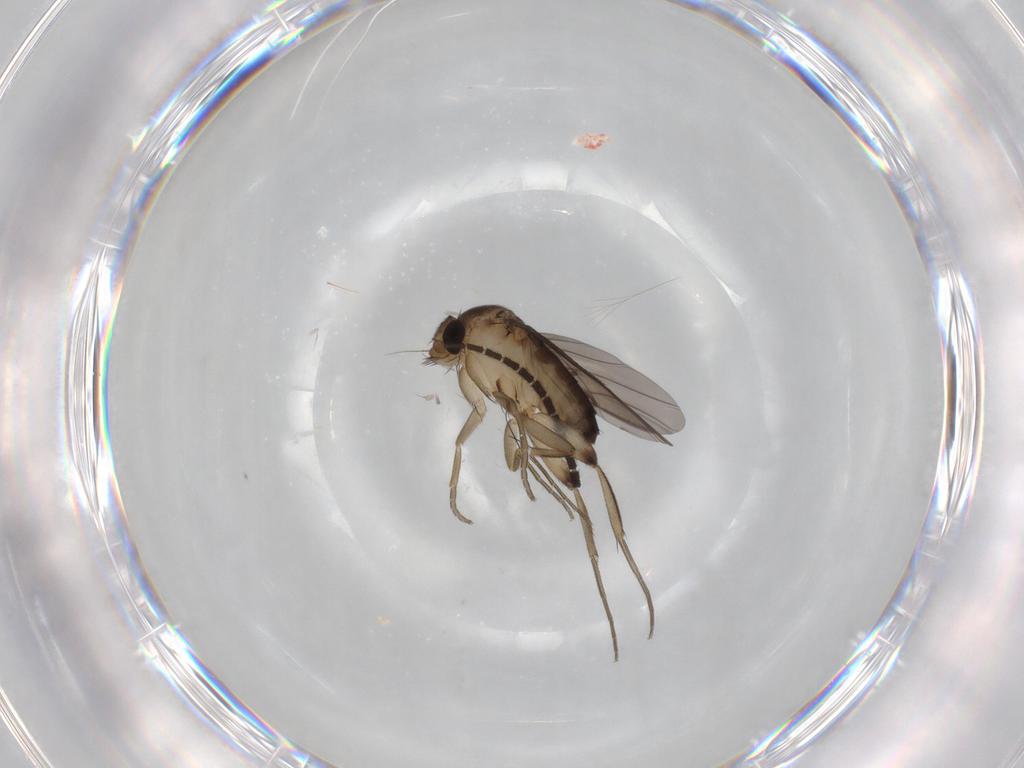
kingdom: Animalia
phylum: Arthropoda
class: Insecta
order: Diptera
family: Phoridae
